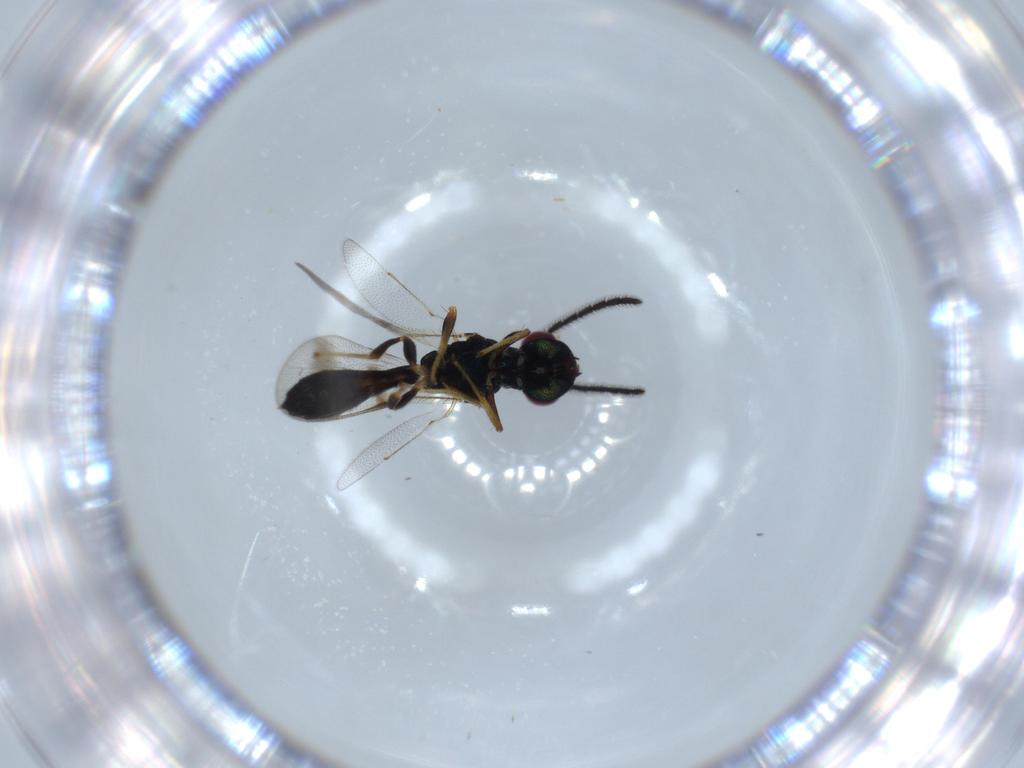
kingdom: Animalia
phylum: Arthropoda
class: Insecta
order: Hymenoptera
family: Pteromalidae
